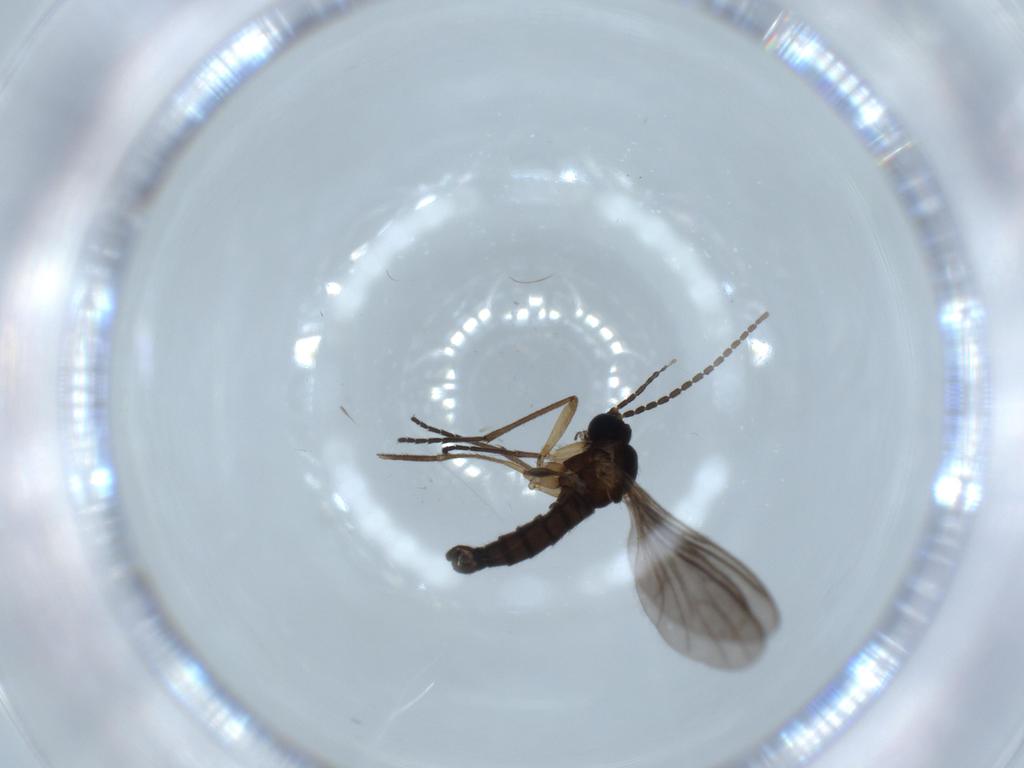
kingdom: Animalia
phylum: Arthropoda
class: Insecta
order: Diptera
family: Sciaridae
